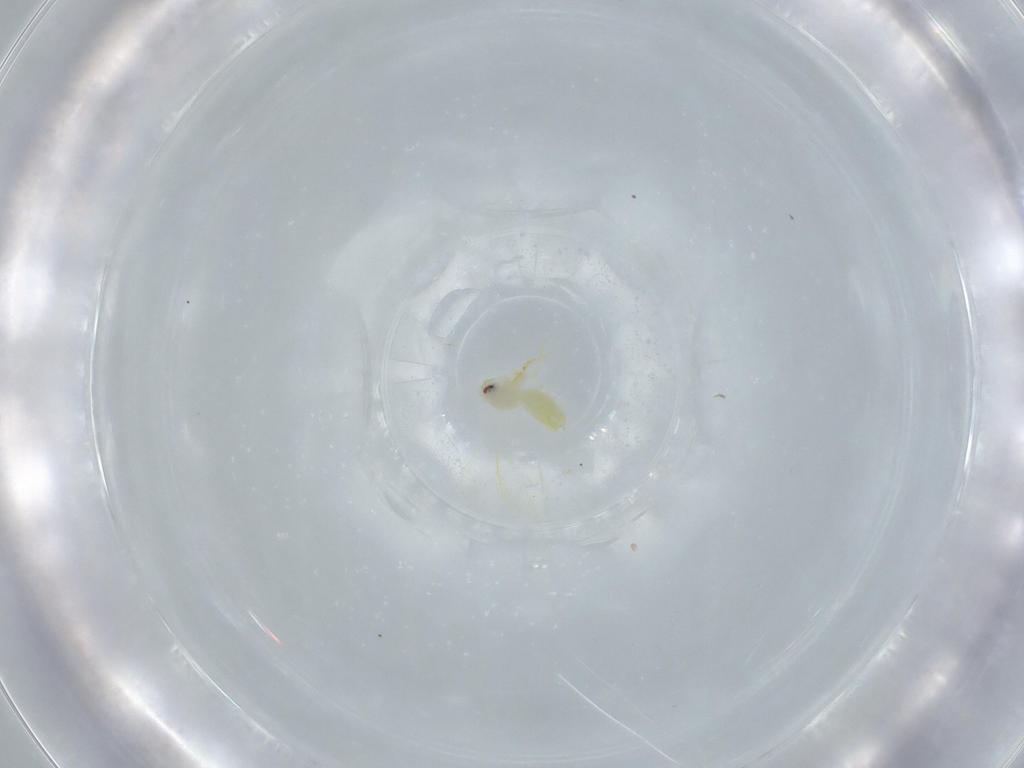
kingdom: Animalia
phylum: Arthropoda
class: Insecta
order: Hemiptera
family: Aleyrodidae
